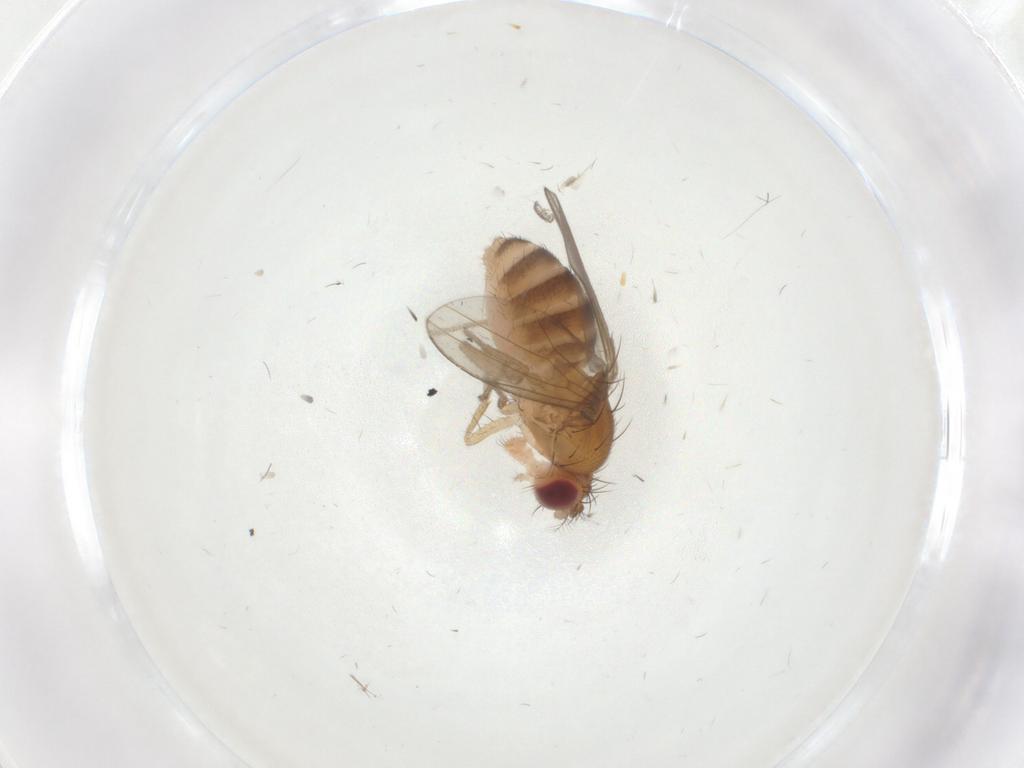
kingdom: Animalia
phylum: Arthropoda
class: Insecta
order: Diptera
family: Drosophilidae
